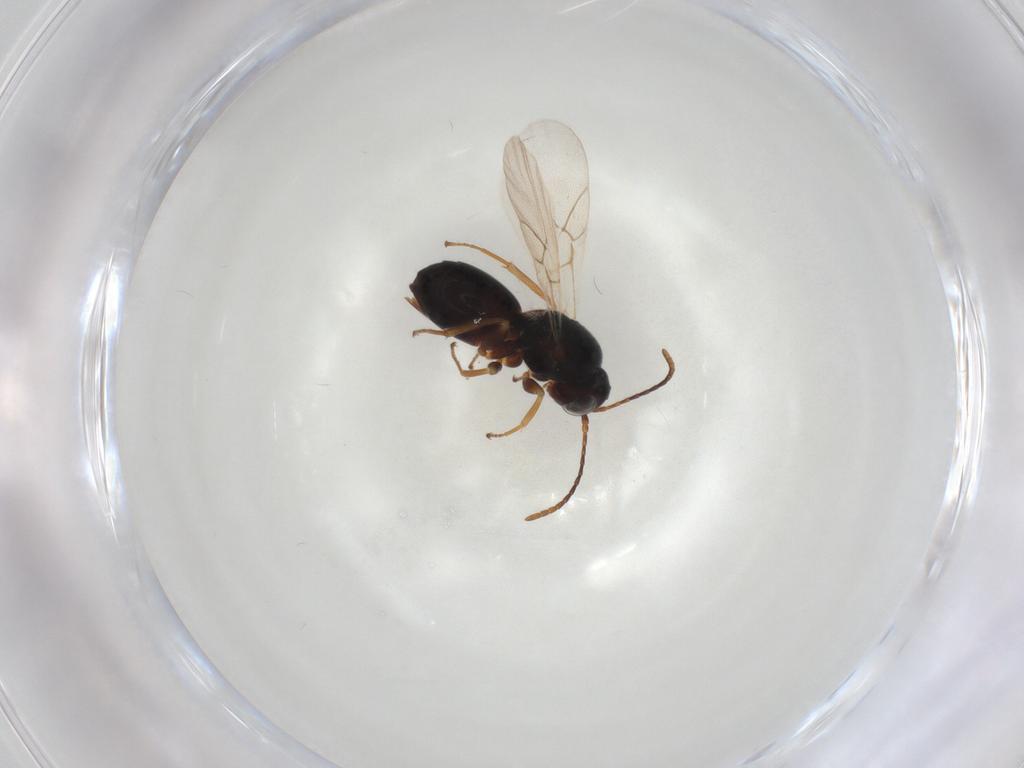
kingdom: Animalia
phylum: Arthropoda
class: Insecta
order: Hymenoptera
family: Cynipidae
